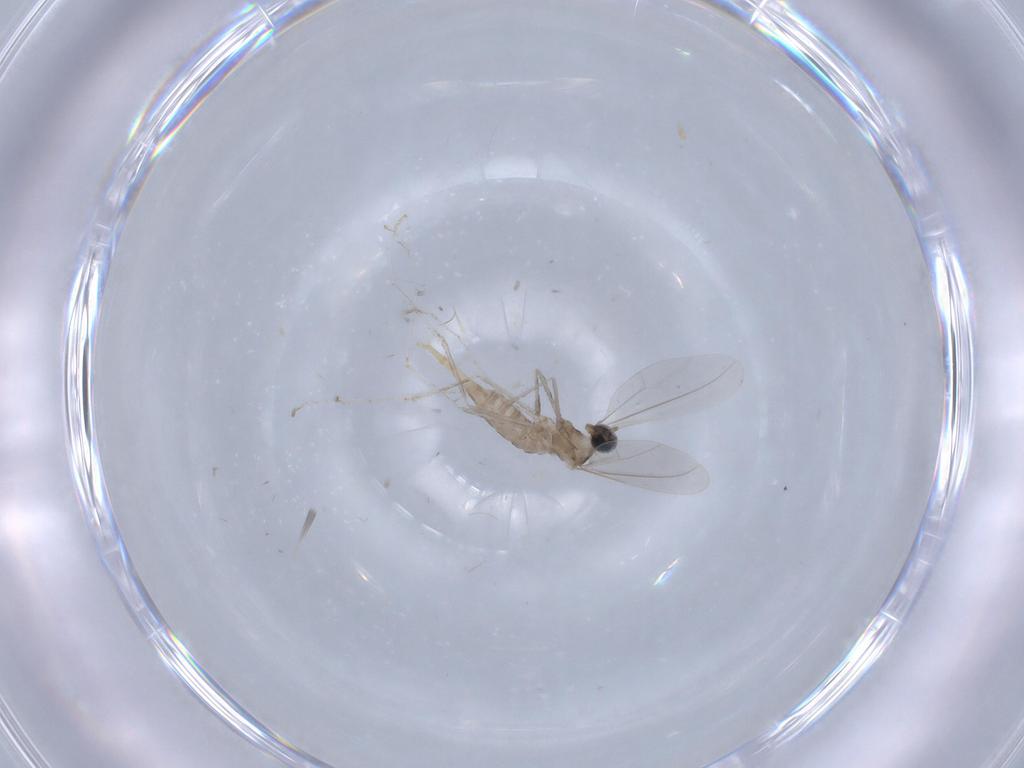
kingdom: Animalia
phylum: Arthropoda
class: Insecta
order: Diptera
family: Cecidomyiidae
